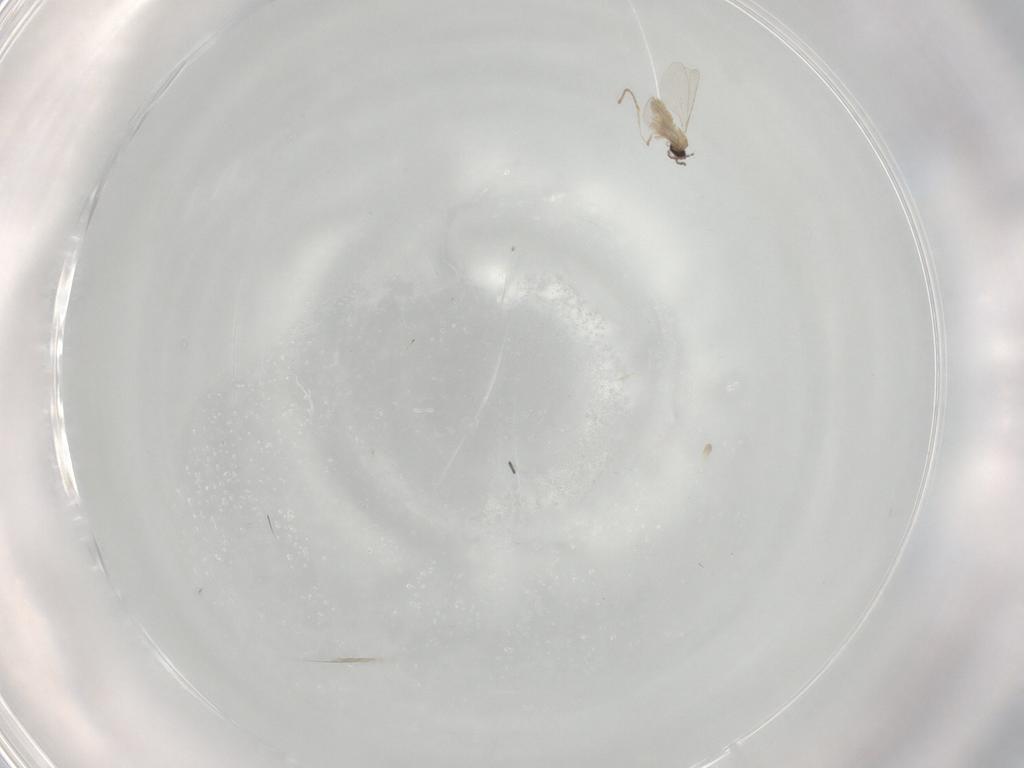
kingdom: Animalia
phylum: Arthropoda
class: Insecta
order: Diptera
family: Cecidomyiidae
